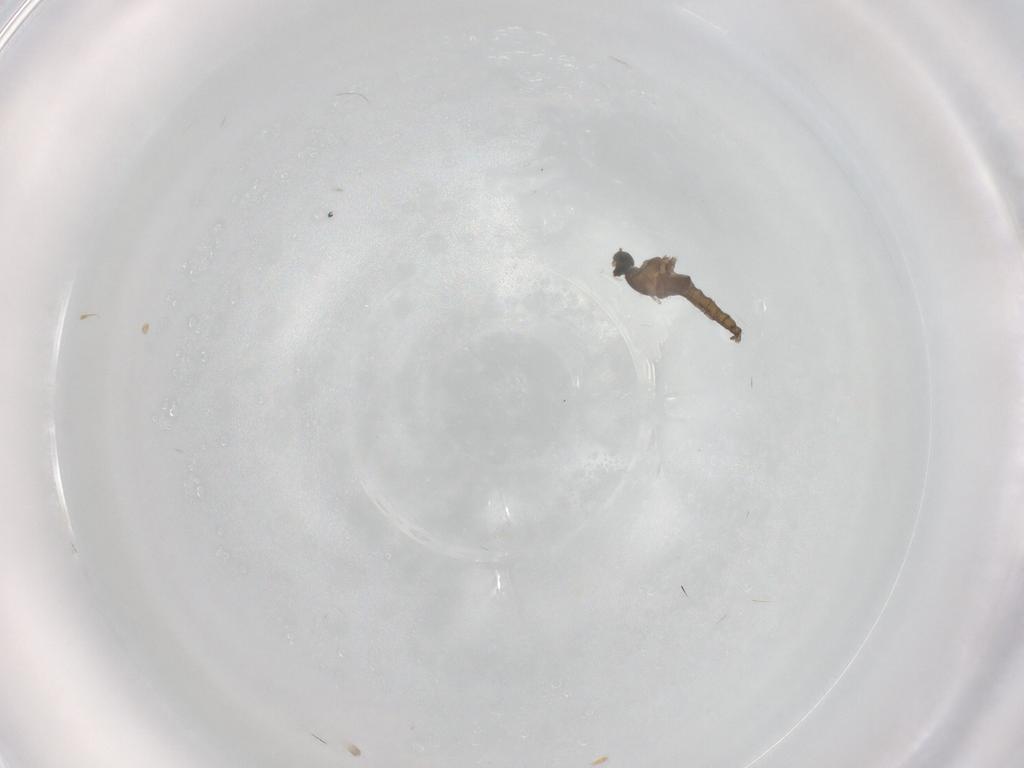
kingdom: Animalia
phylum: Arthropoda
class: Insecta
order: Diptera
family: Cecidomyiidae
